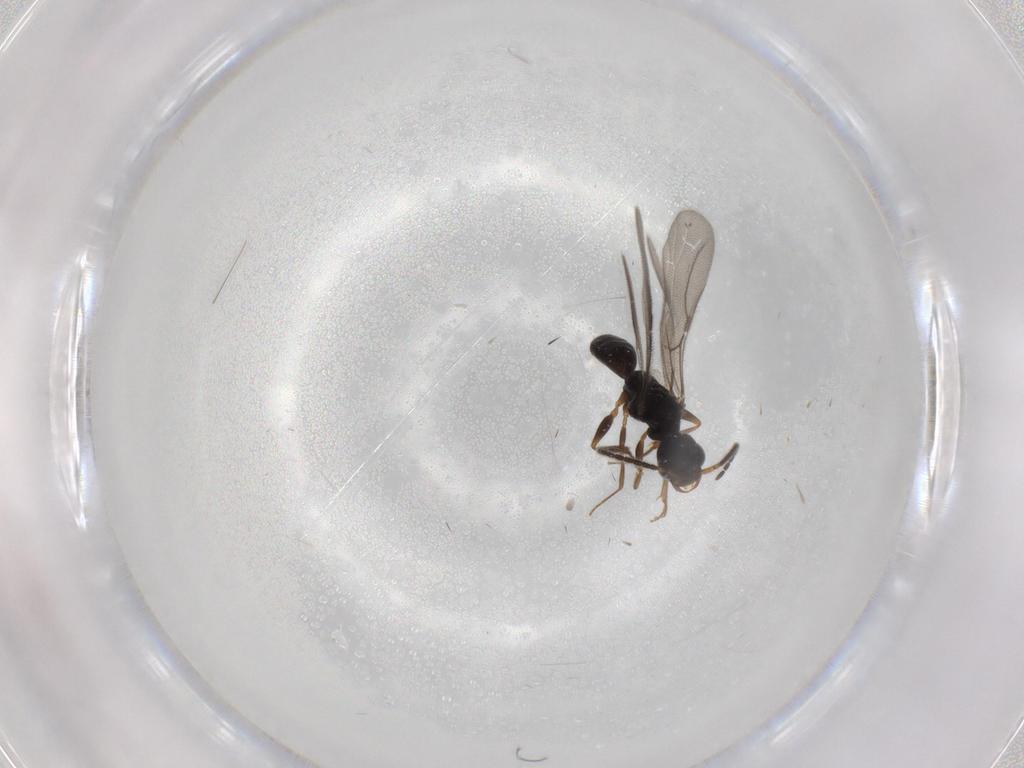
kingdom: Animalia
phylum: Arthropoda
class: Insecta
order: Hymenoptera
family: Bethylidae
